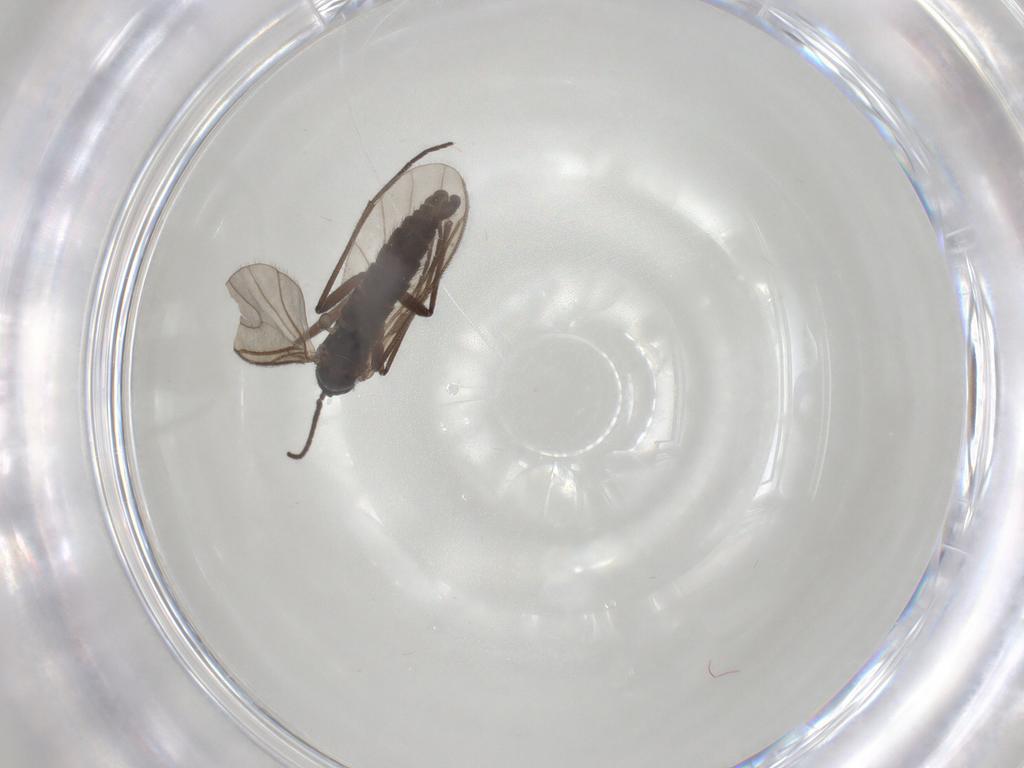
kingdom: Animalia
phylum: Arthropoda
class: Insecta
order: Diptera
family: Sciaridae
